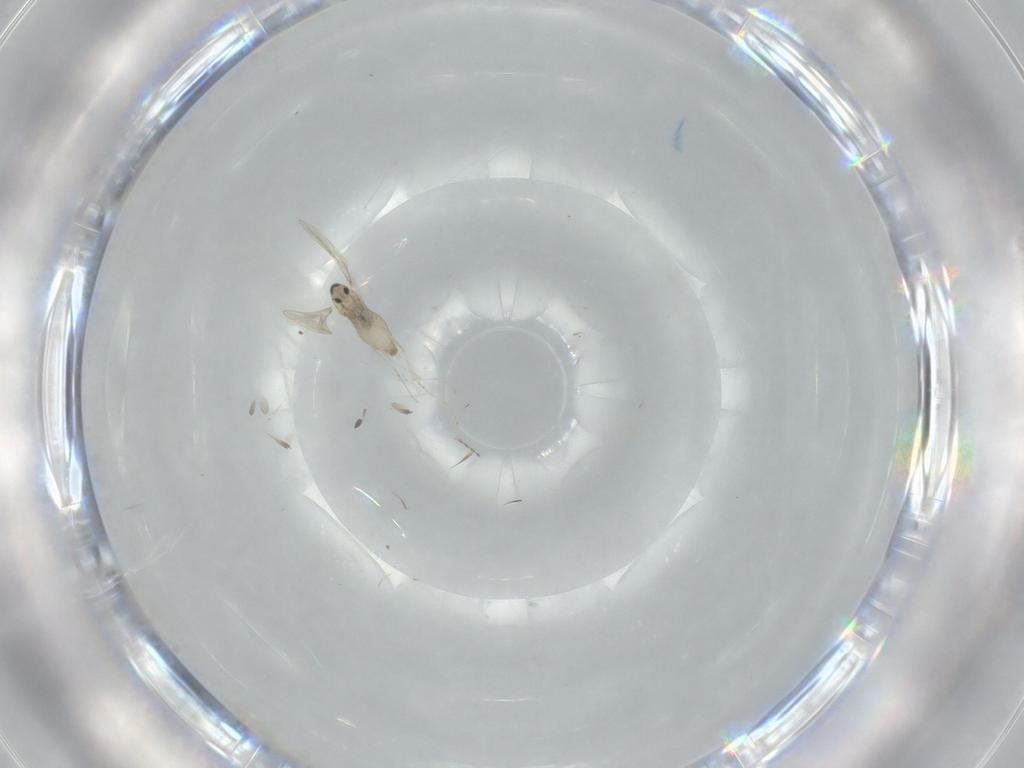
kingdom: Animalia
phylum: Arthropoda
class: Insecta
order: Diptera
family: Cecidomyiidae
